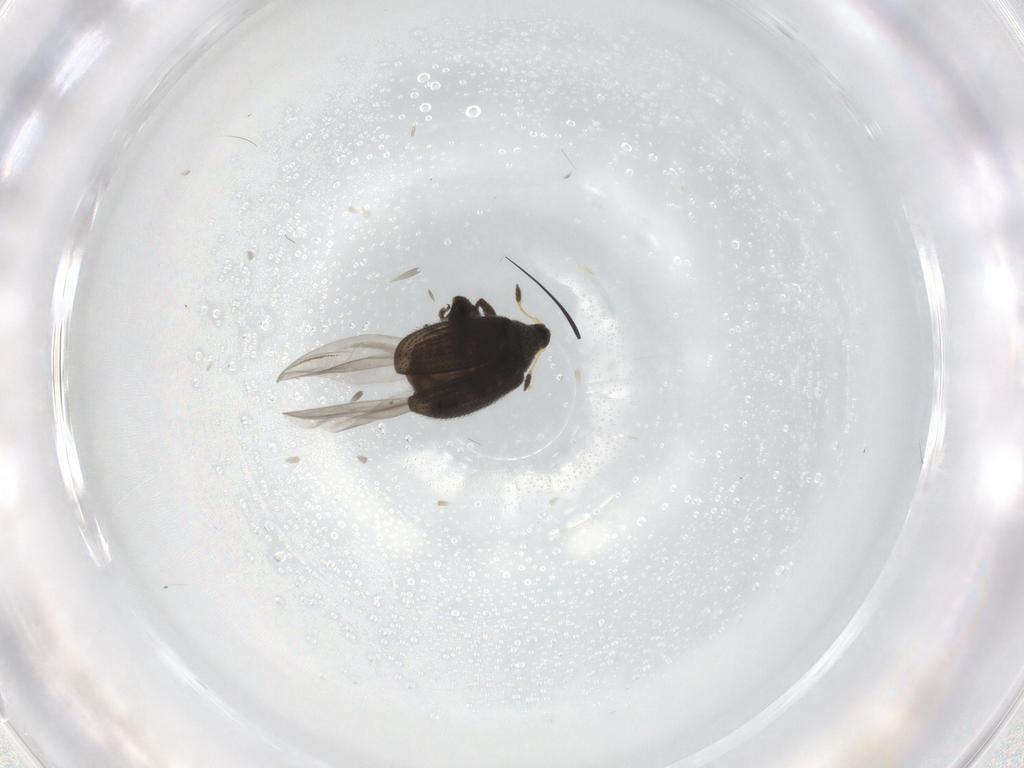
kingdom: Animalia
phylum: Arthropoda
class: Insecta
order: Coleoptera
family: Curculionidae
